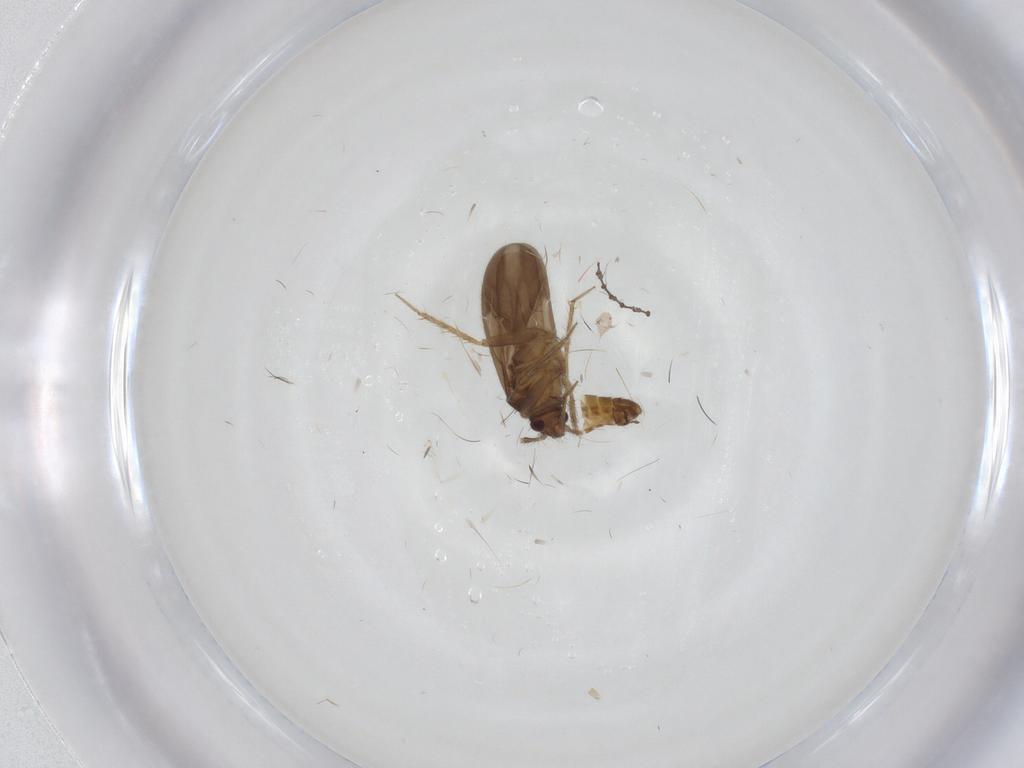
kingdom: Animalia
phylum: Arthropoda
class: Insecta
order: Hemiptera
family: Ceratocombidae
